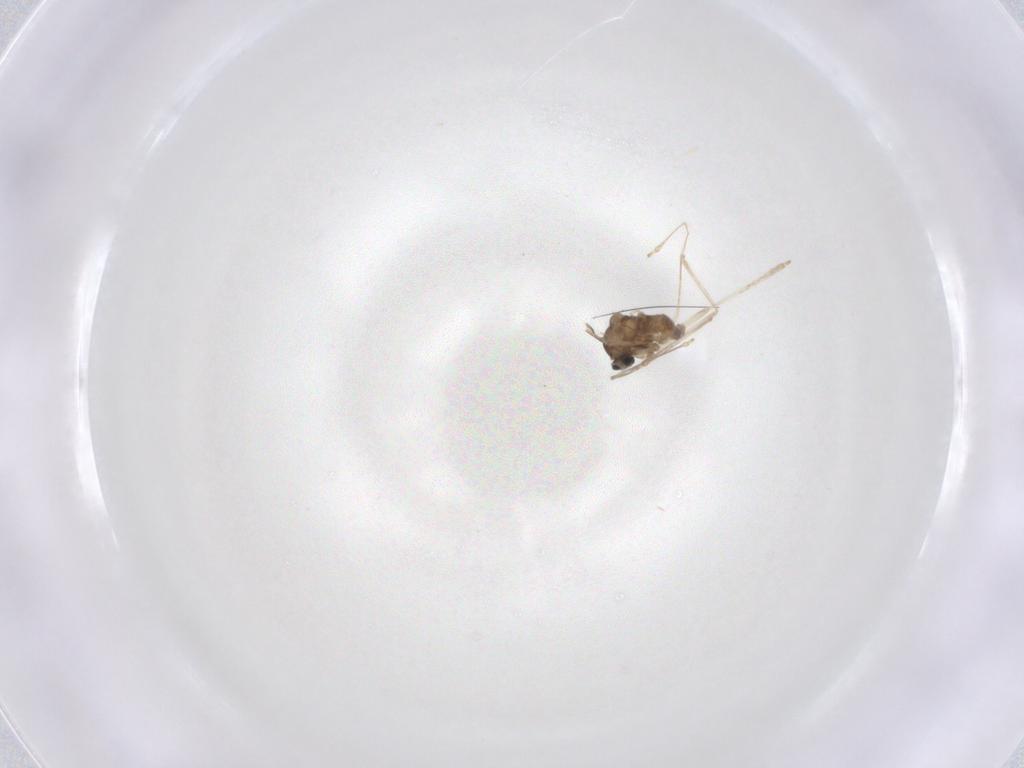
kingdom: Animalia
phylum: Arthropoda
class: Insecta
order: Diptera
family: Cecidomyiidae
